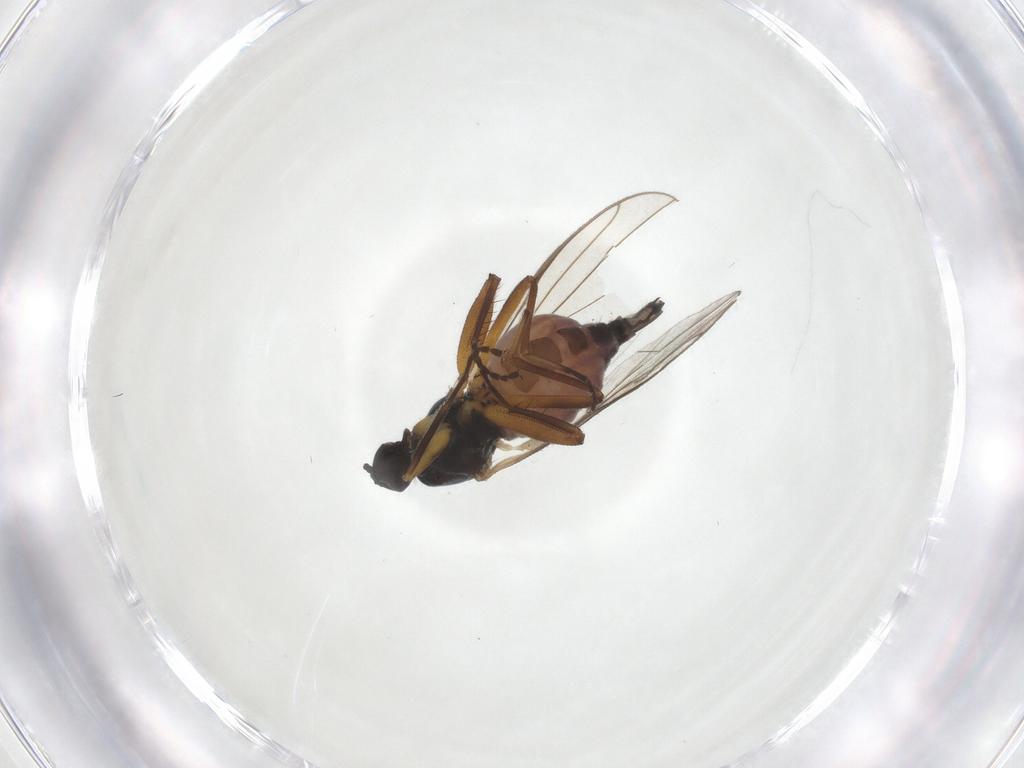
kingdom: Animalia
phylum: Arthropoda
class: Insecta
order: Diptera
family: Hybotidae
